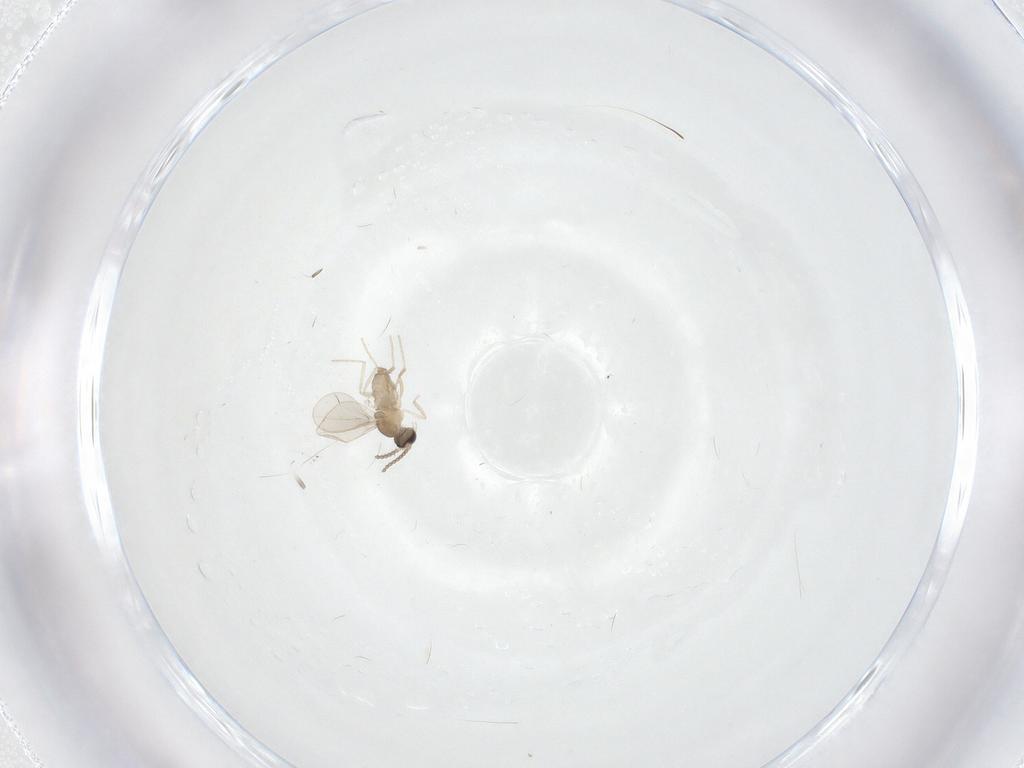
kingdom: Animalia
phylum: Arthropoda
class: Insecta
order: Diptera
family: Cecidomyiidae
